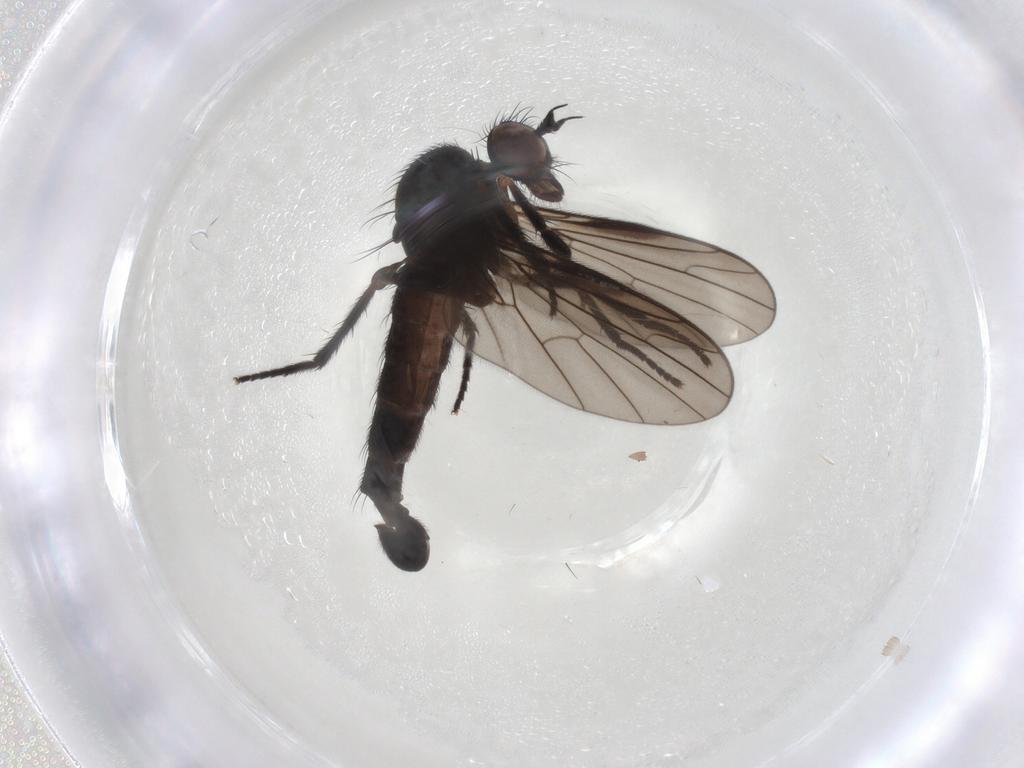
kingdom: Animalia
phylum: Arthropoda
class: Insecta
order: Diptera
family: Empididae
